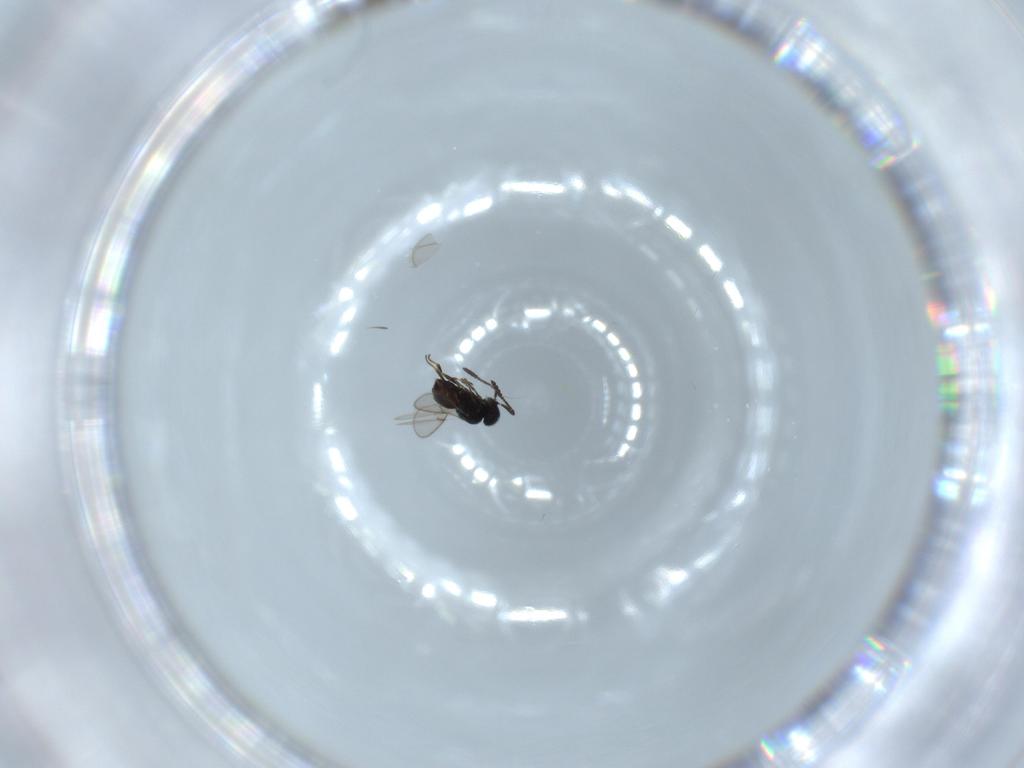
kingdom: Animalia
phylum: Arthropoda
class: Insecta
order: Hymenoptera
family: Scelionidae
